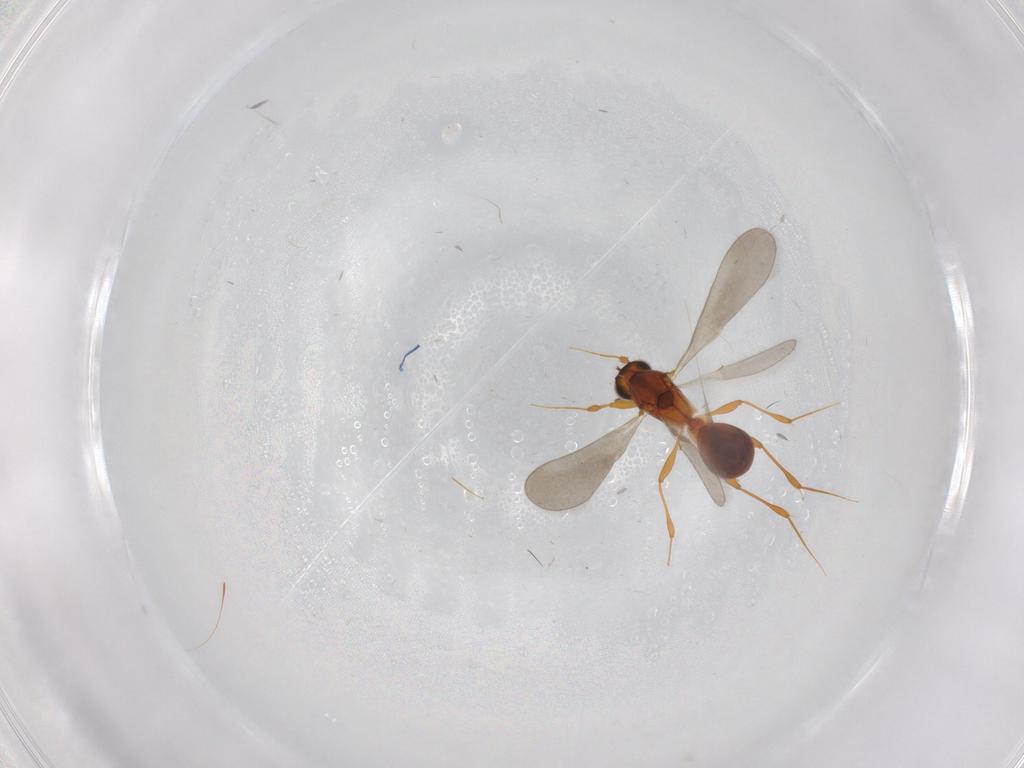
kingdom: Animalia
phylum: Arthropoda
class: Insecta
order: Hymenoptera
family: Platygastridae
